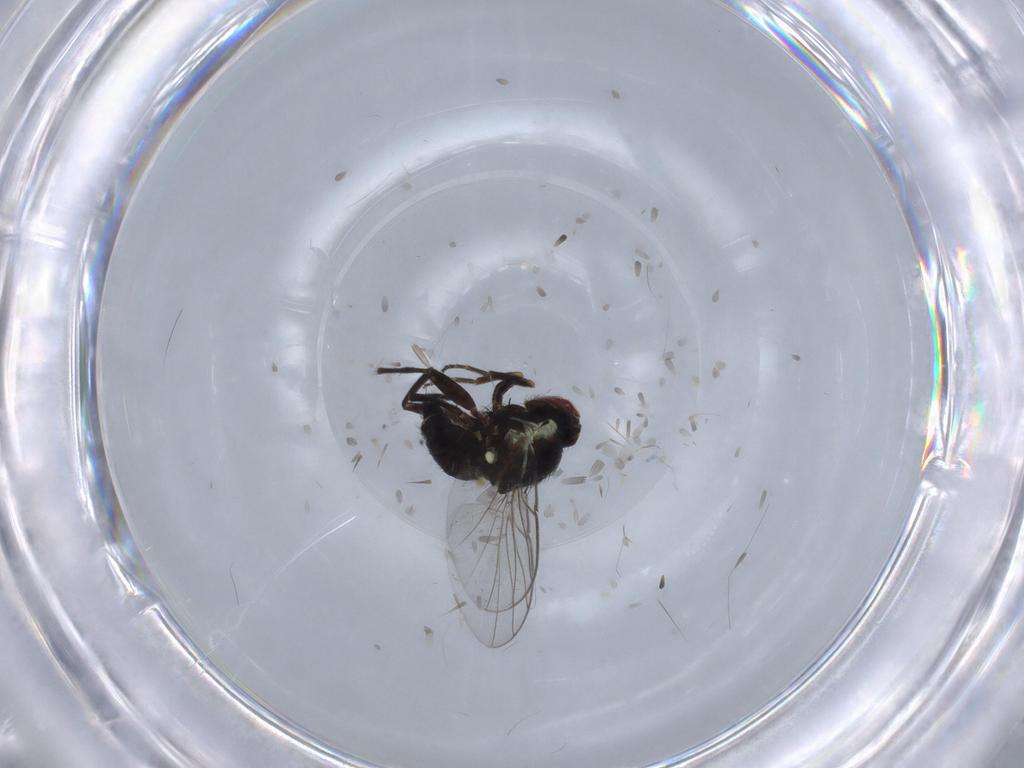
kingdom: Animalia
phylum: Arthropoda
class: Insecta
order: Diptera
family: Agromyzidae
